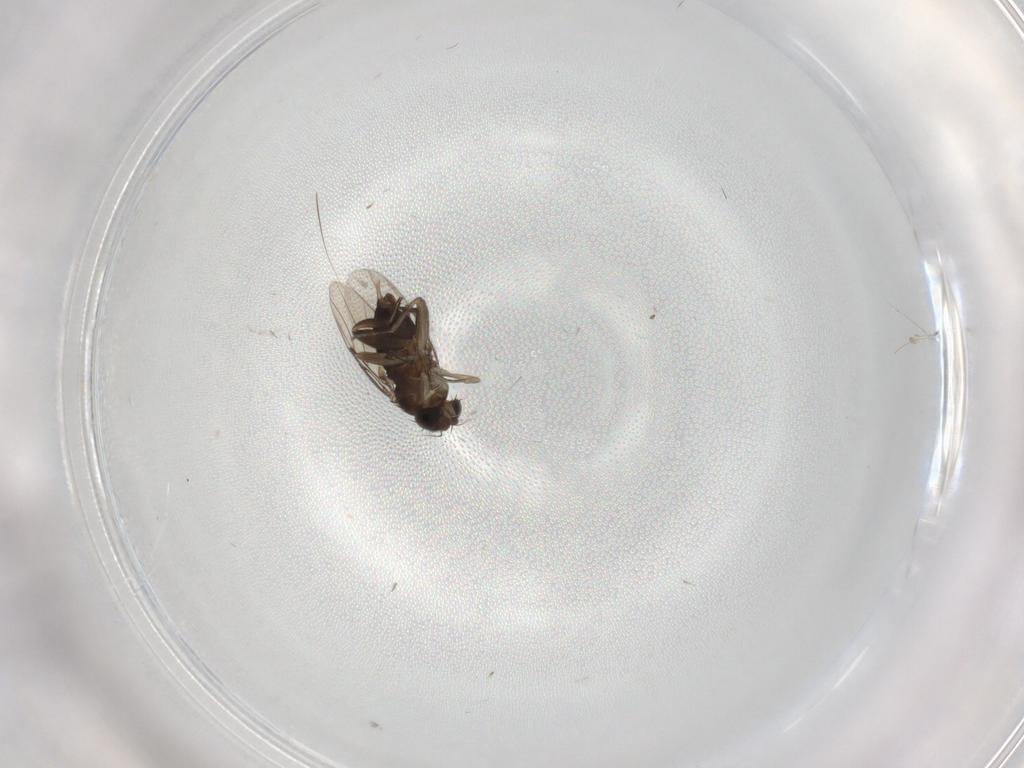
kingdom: Animalia
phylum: Arthropoda
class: Insecta
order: Diptera
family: Phoridae
